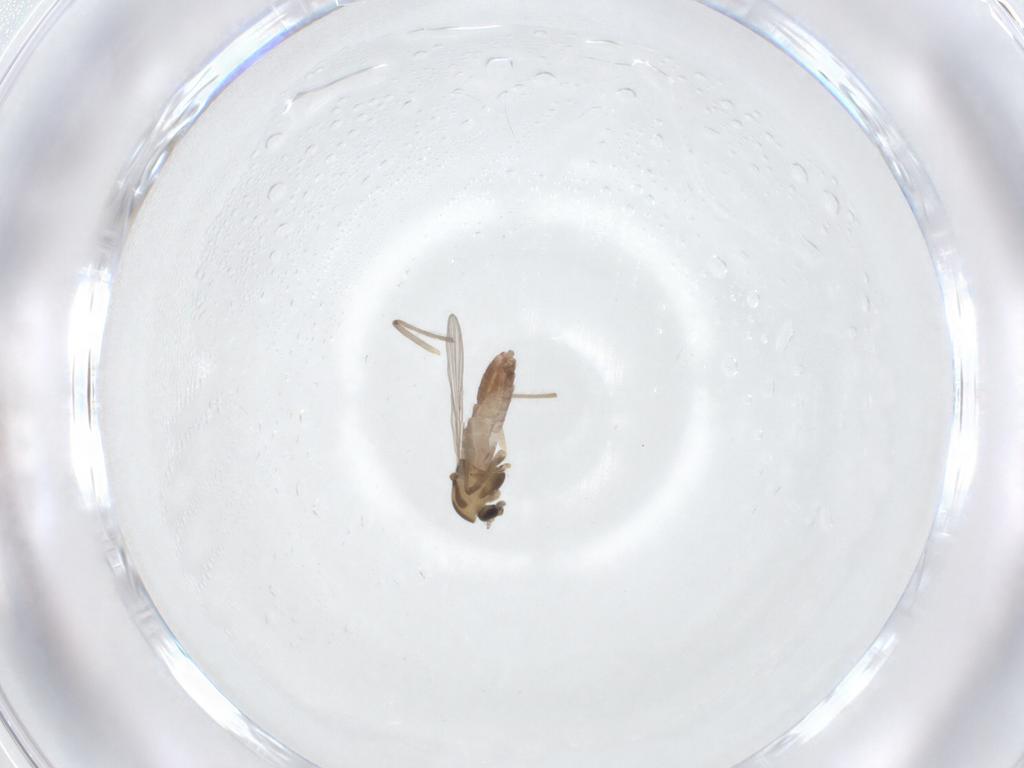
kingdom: Animalia
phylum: Arthropoda
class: Insecta
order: Diptera
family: Chironomidae
